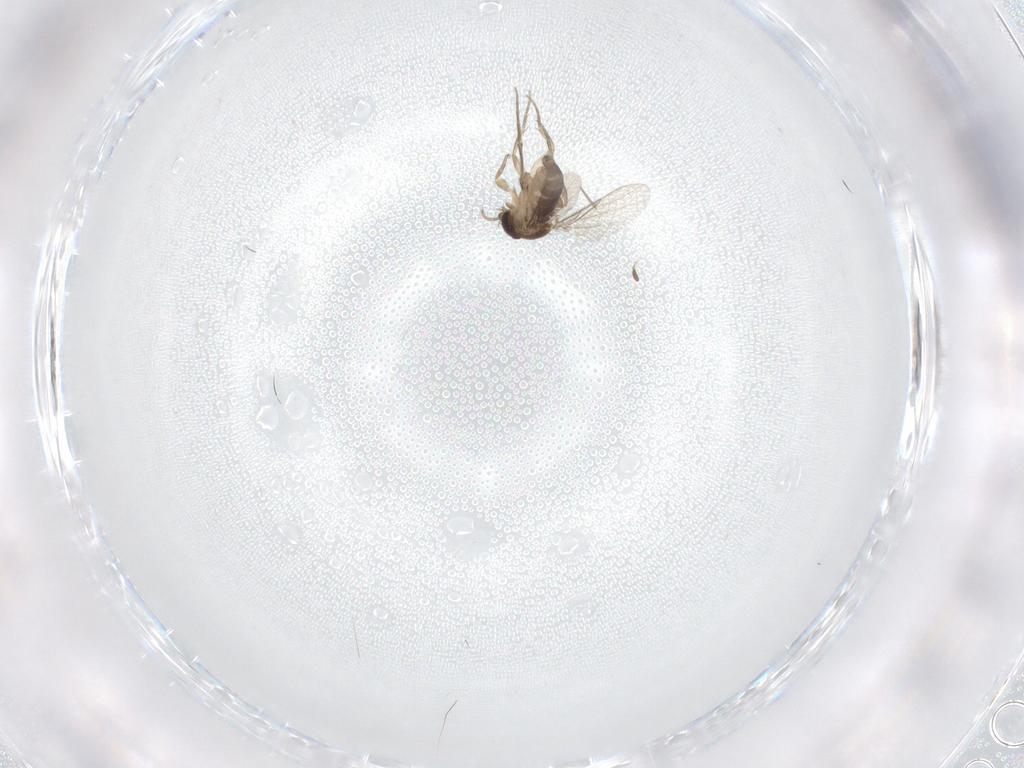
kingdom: Animalia
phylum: Arthropoda
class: Insecta
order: Diptera
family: Phoridae
